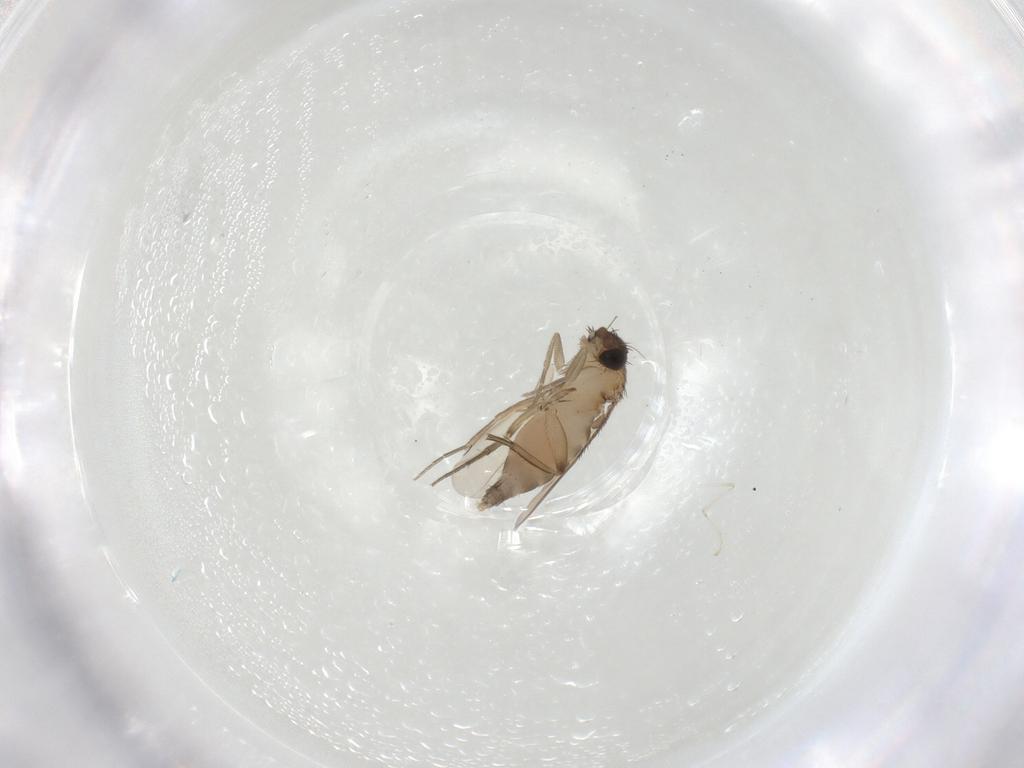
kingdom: Animalia
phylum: Arthropoda
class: Insecta
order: Diptera
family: Phoridae
